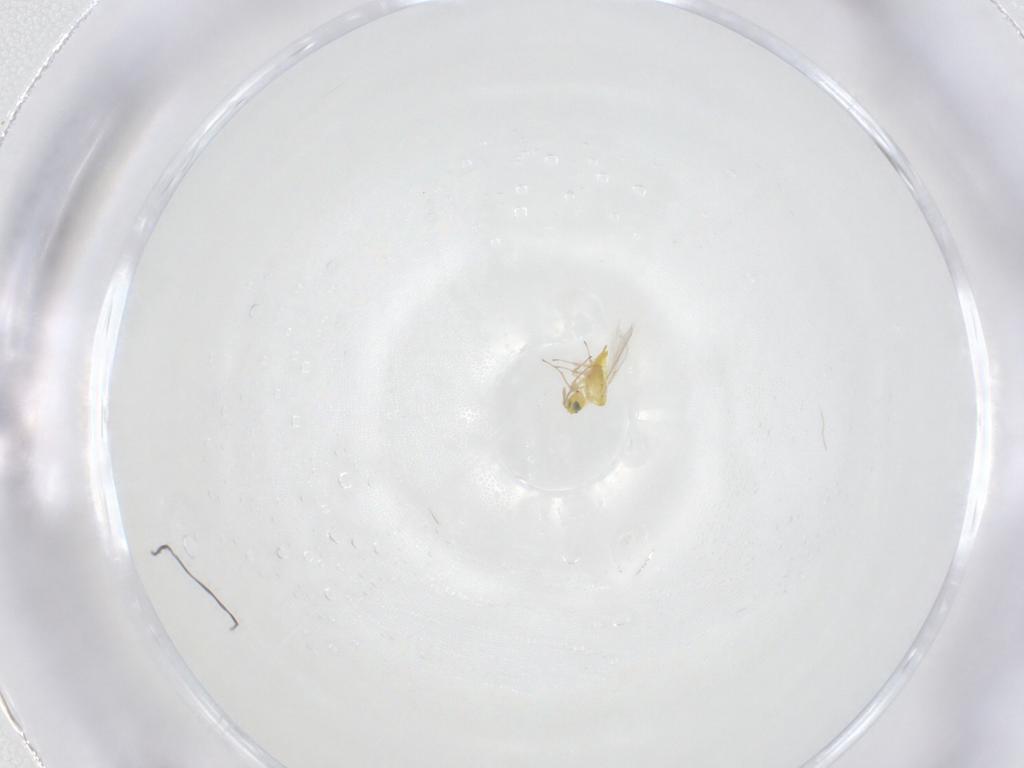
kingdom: Animalia
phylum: Arthropoda
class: Insecta
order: Hymenoptera
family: Aphelinidae
